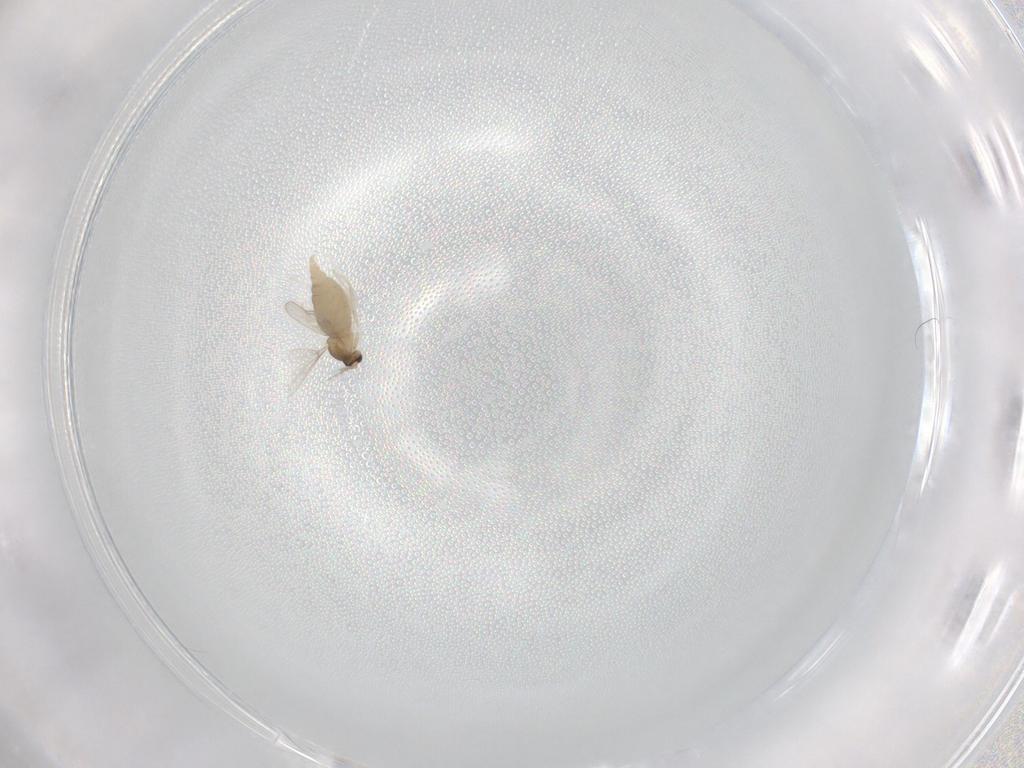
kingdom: Animalia
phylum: Arthropoda
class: Insecta
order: Diptera
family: Cecidomyiidae
